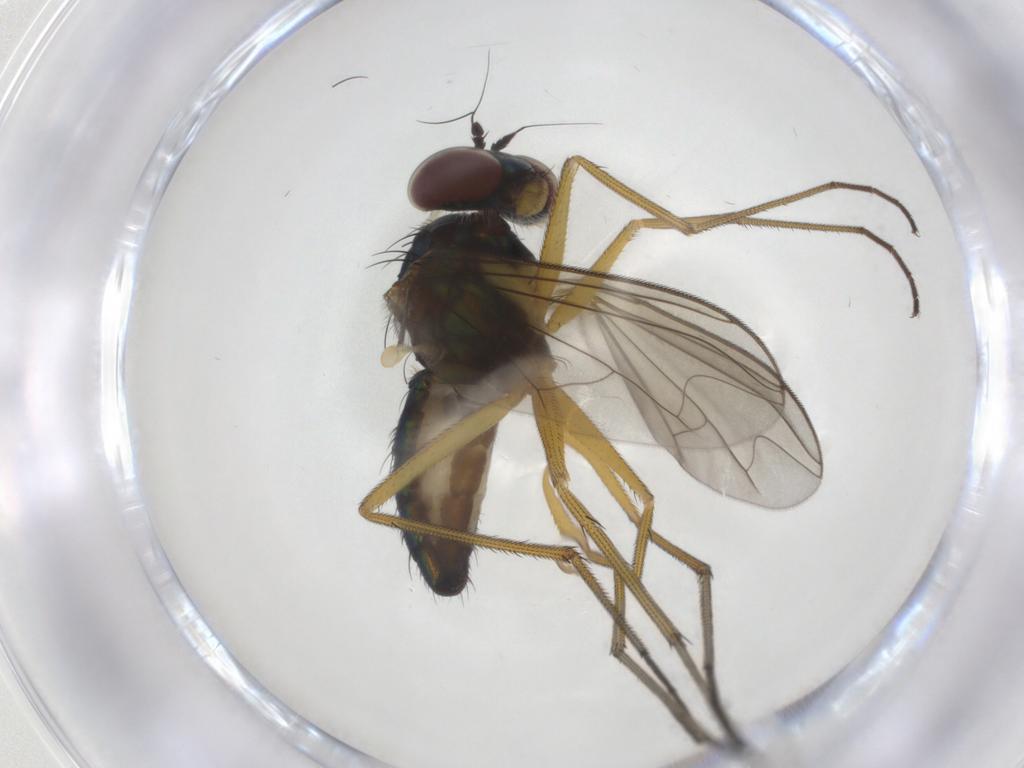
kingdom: Animalia
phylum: Arthropoda
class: Insecta
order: Diptera
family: Dolichopodidae
